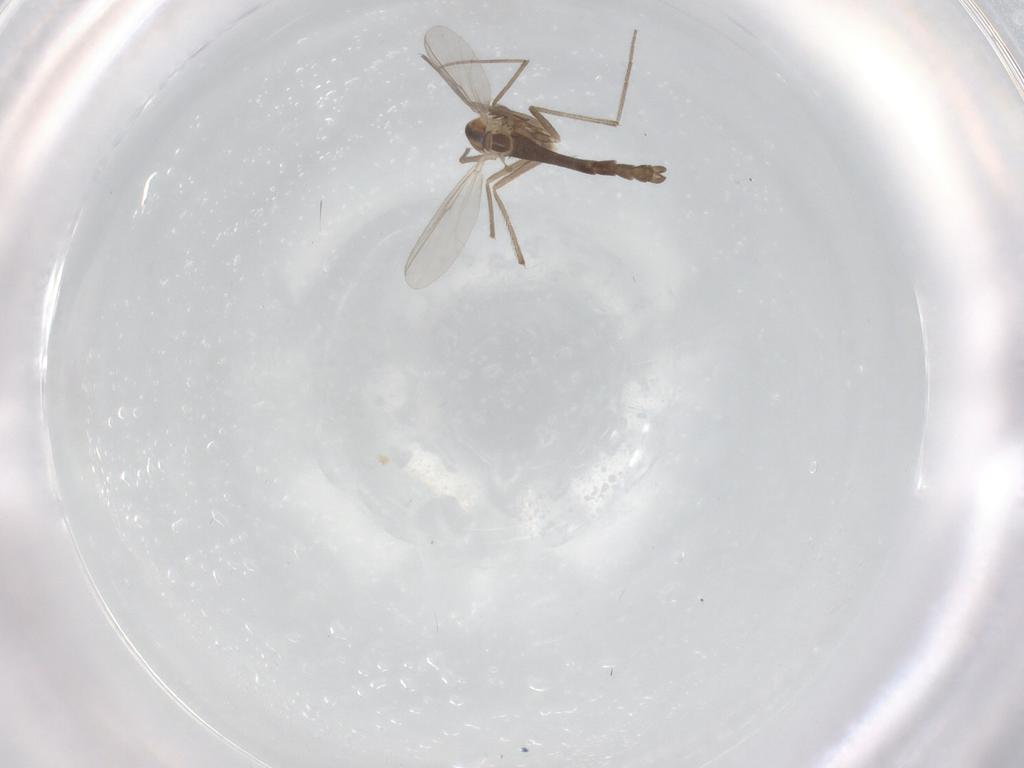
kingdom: Animalia
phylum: Arthropoda
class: Insecta
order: Diptera
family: Chironomidae
